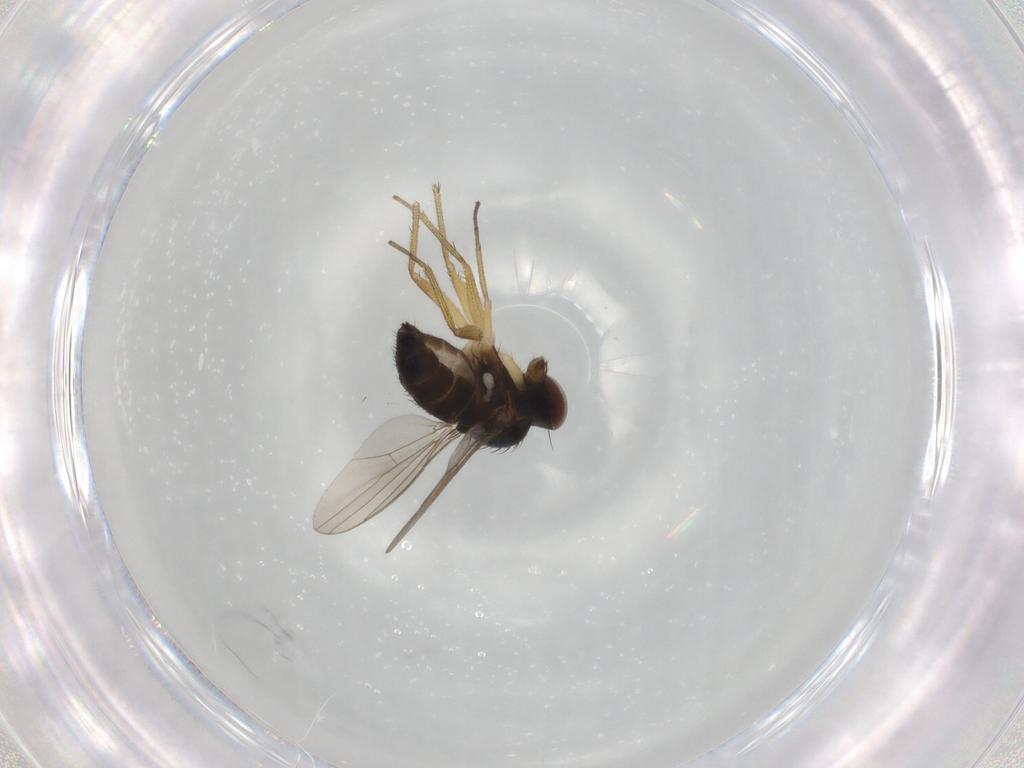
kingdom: Animalia
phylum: Arthropoda
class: Insecta
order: Diptera
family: Dolichopodidae
